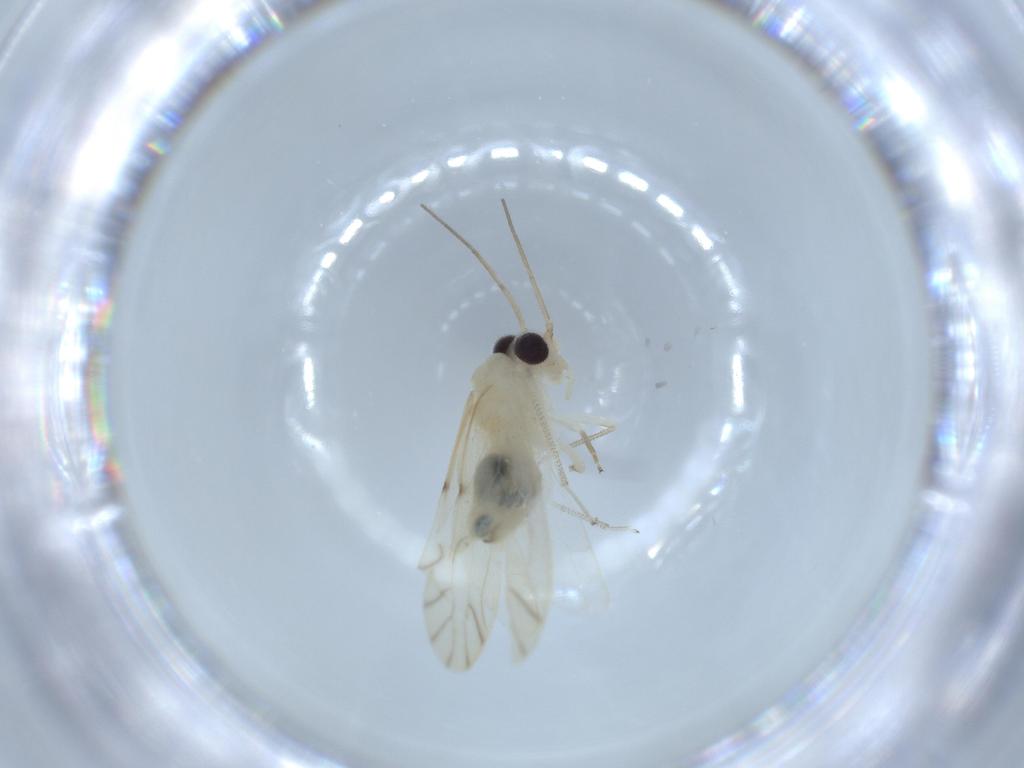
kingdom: Animalia
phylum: Arthropoda
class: Insecta
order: Psocodea
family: Caeciliusidae
